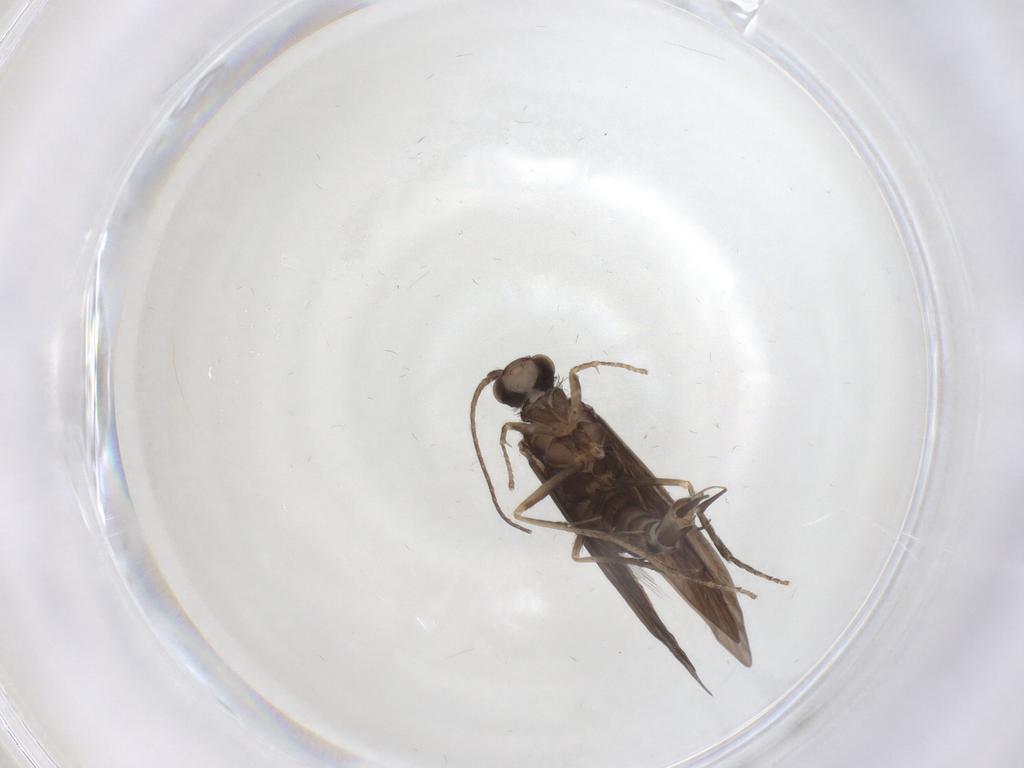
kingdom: Animalia
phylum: Arthropoda
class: Insecta
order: Trichoptera
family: Xiphocentronidae
